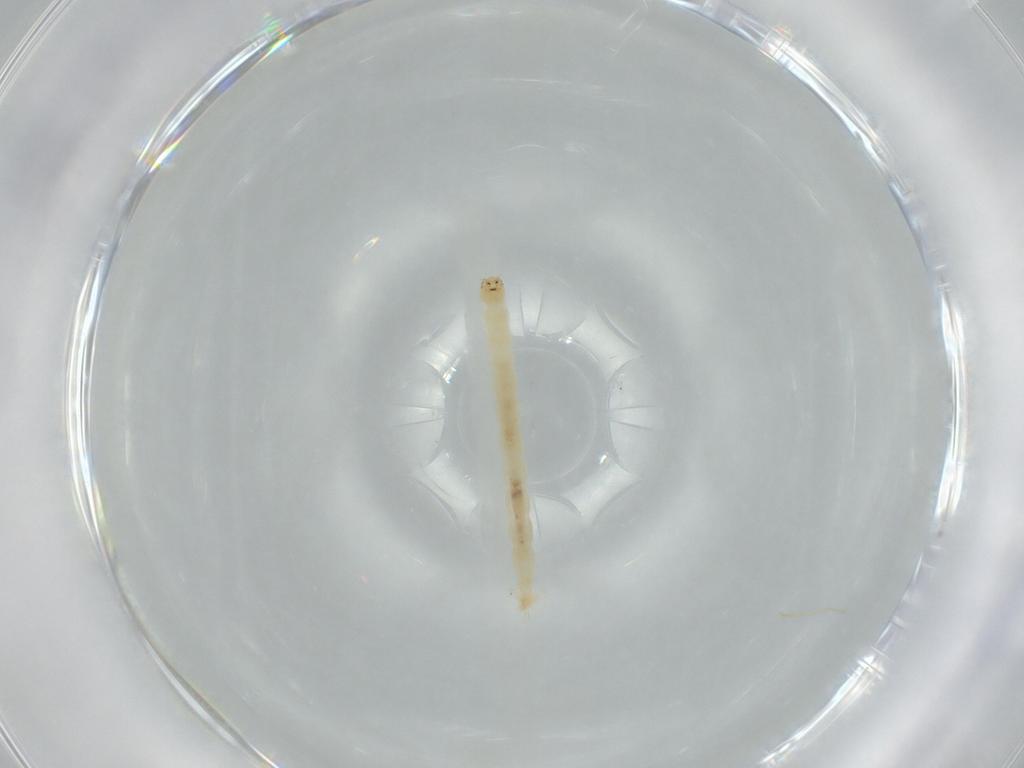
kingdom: Animalia
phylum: Arthropoda
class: Insecta
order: Diptera
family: Ceratopogonidae
